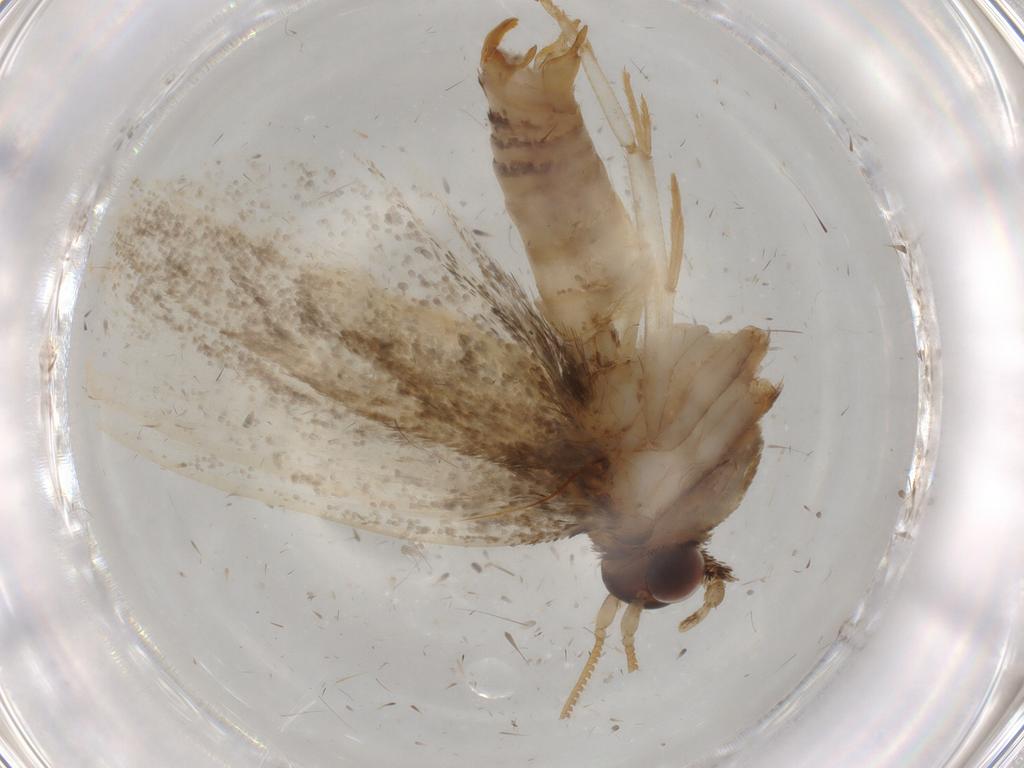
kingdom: Animalia
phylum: Arthropoda
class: Insecta
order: Lepidoptera
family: Tineidae
